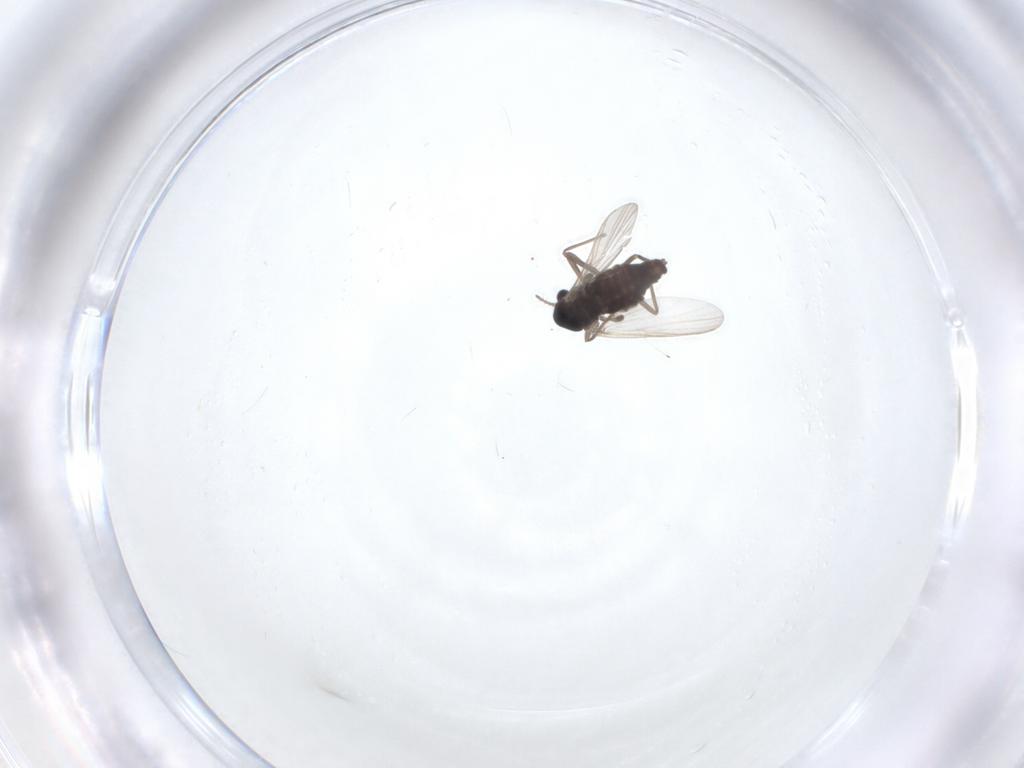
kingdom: Animalia
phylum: Arthropoda
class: Insecta
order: Diptera
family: Chironomidae
